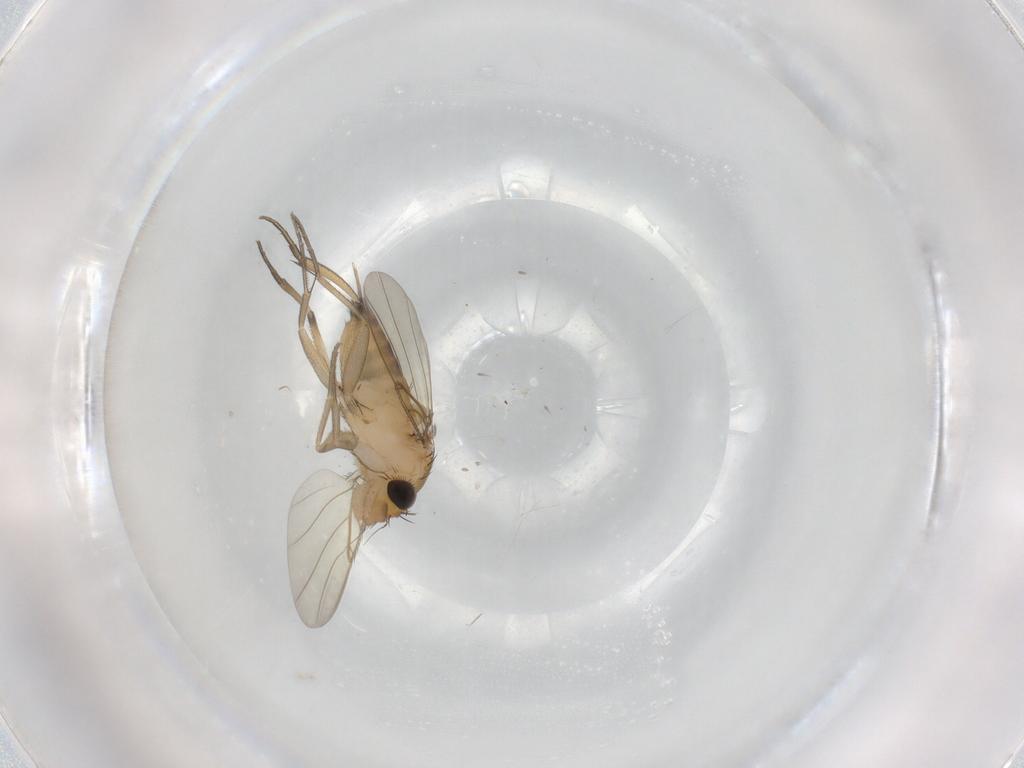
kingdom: Animalia
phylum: Arthropoda
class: Insecta
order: Diptera
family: Phoridae
